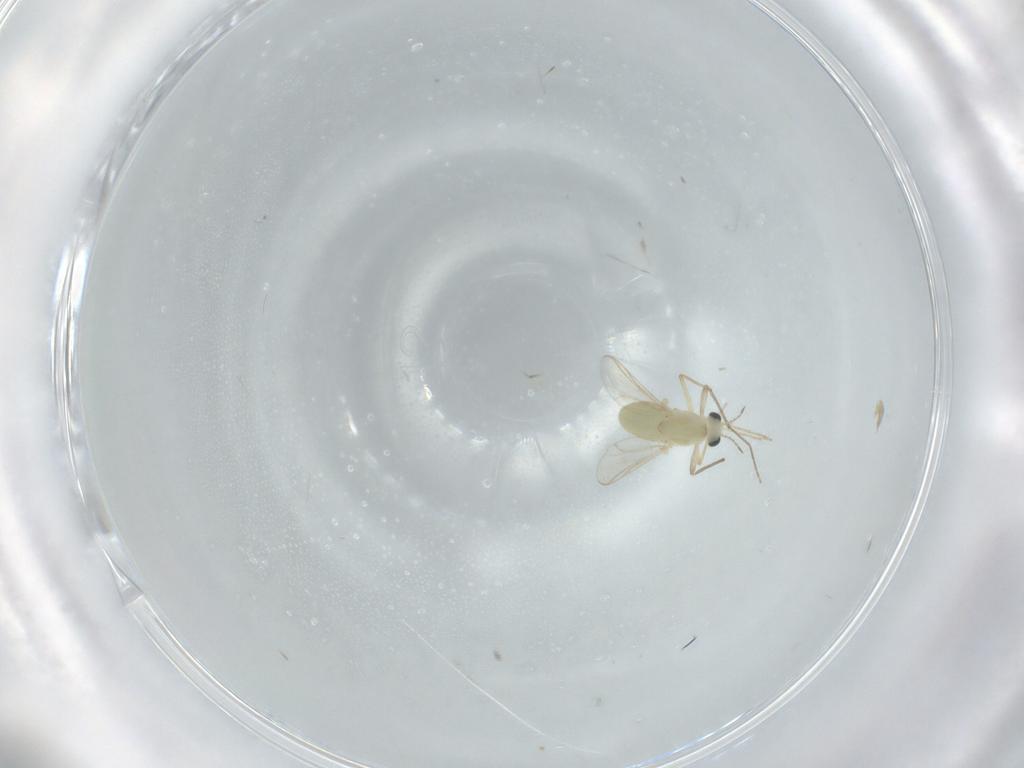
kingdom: Animalia
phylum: Arthropoda
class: Insecta
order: Diptera
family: Chironomidae
